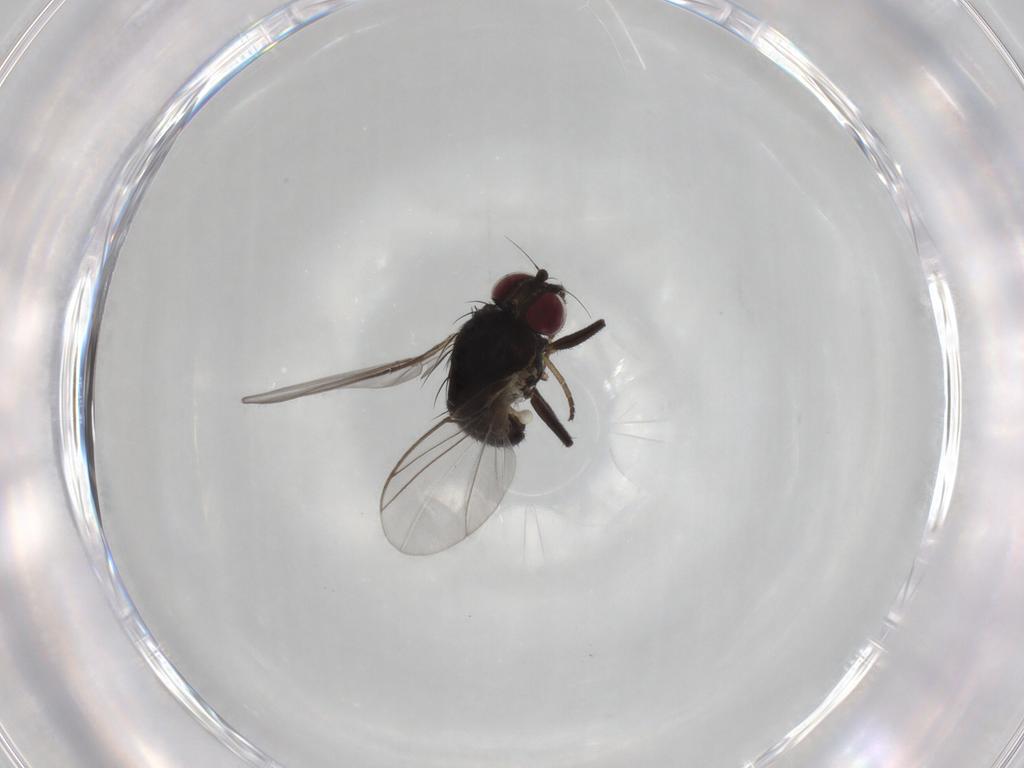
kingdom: Animalia
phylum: Arthropoda
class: Insecta
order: Diptera
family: Agromyzidae
